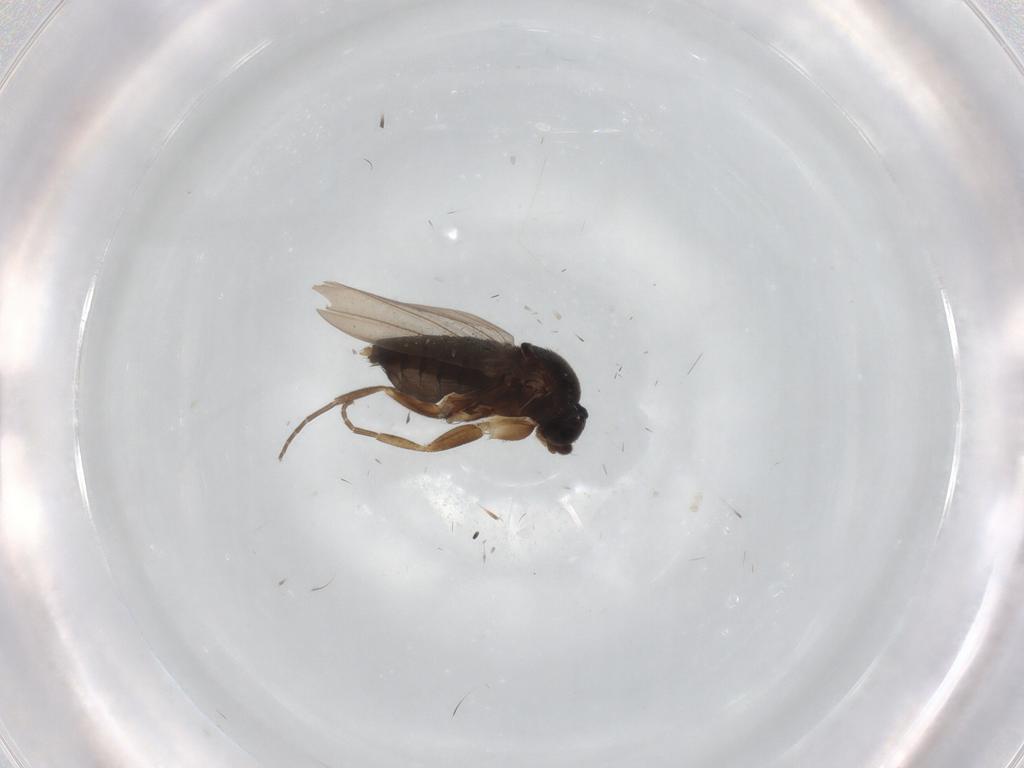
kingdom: Animalia
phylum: Arthropoda
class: Insecta
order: Diptera
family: Phoridae
